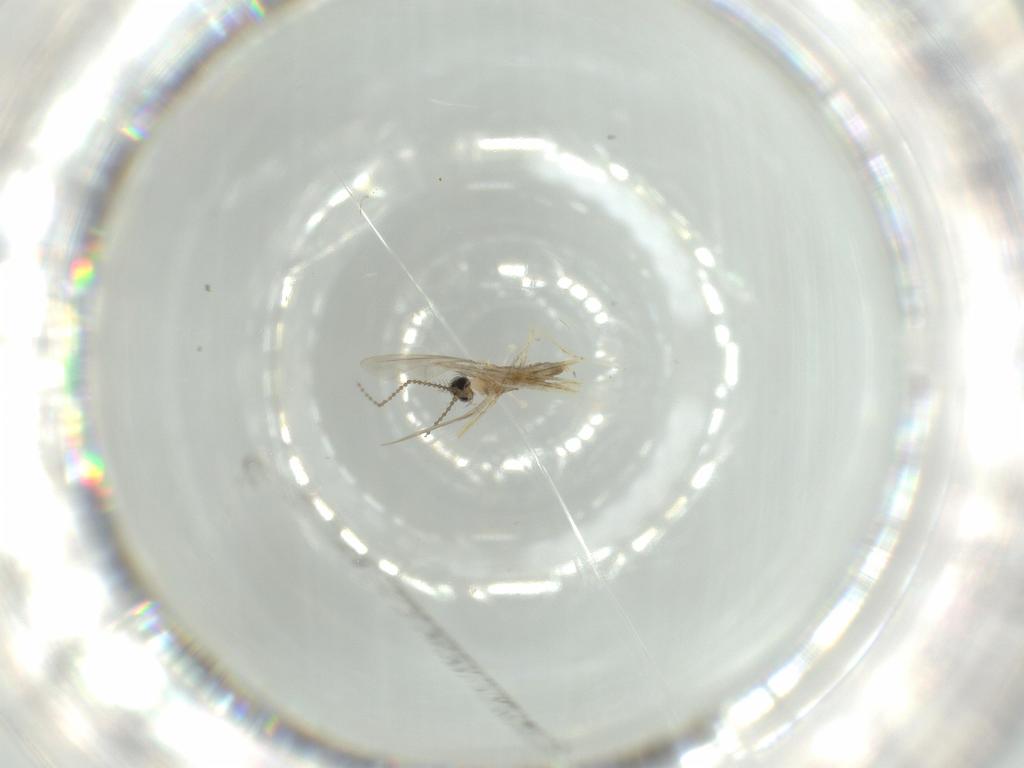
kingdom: Animalia
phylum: Arthropoda
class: Insecta
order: Diptera
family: Cecidomyiidae
